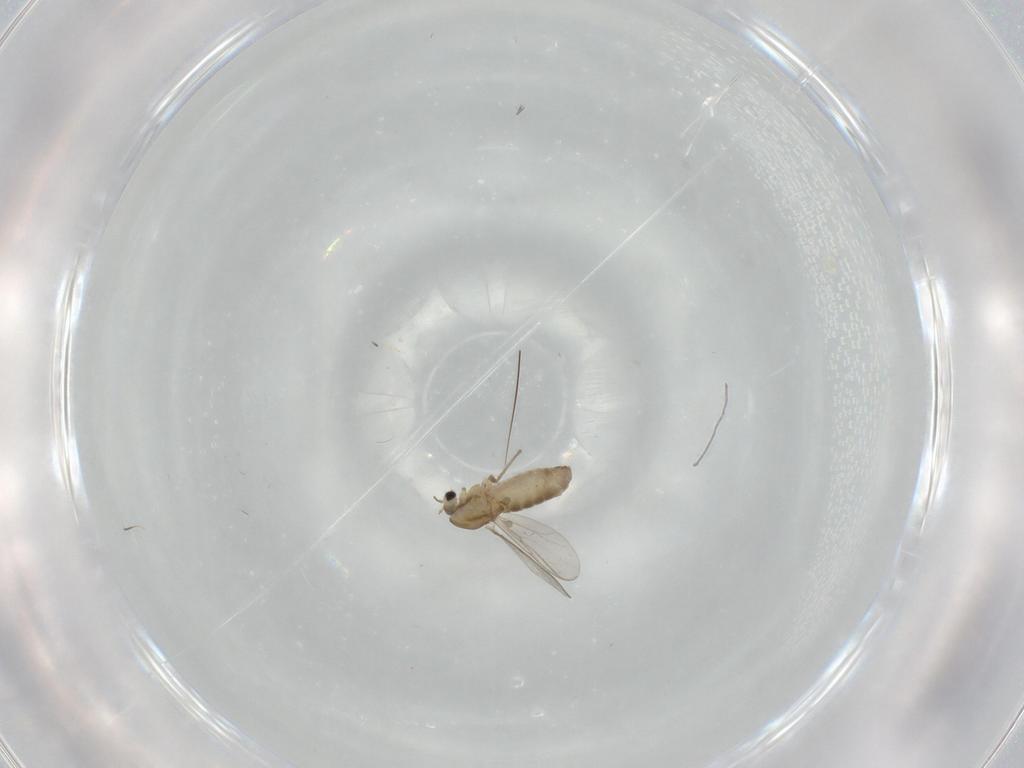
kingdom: Animalia
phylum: Arthropoda
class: Insecta
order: Diptera
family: Chironomidae
